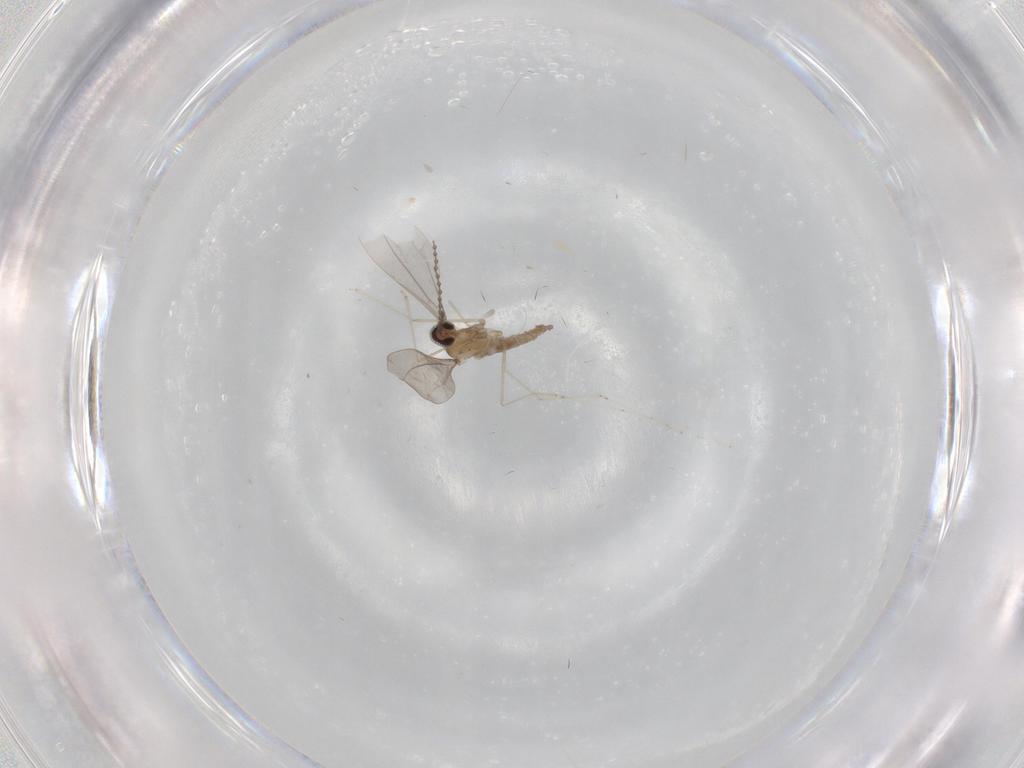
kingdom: Animalia
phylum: Arthropoda
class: Insecta
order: Diptera
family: Cecidomyiidae
